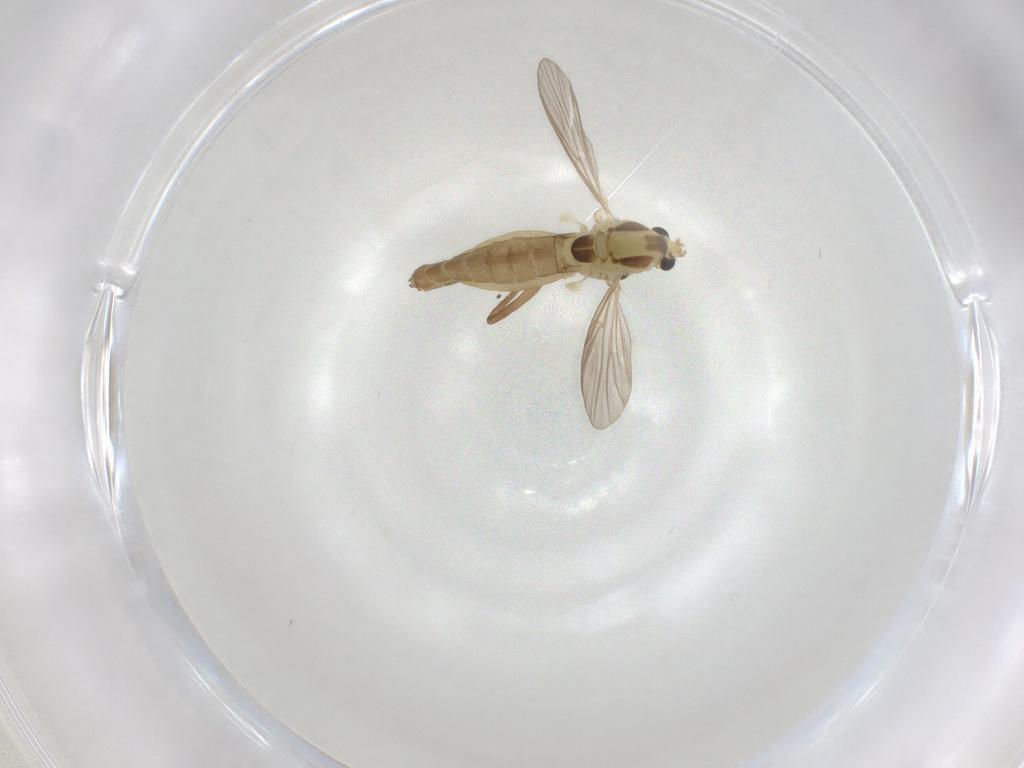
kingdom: Animalia
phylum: Arthropoda
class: Insecta
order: Diptera
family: Chironomidae
